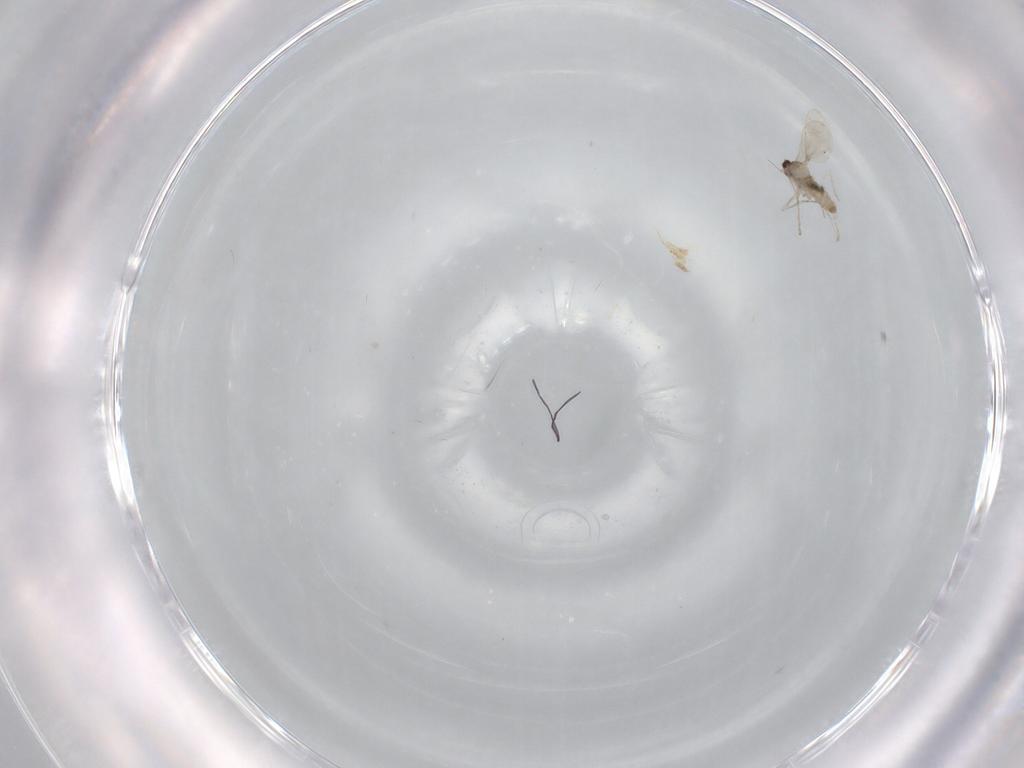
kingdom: Animalia
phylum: Arthropoda
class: Insecta
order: Diptera
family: Cecidomyiidae
